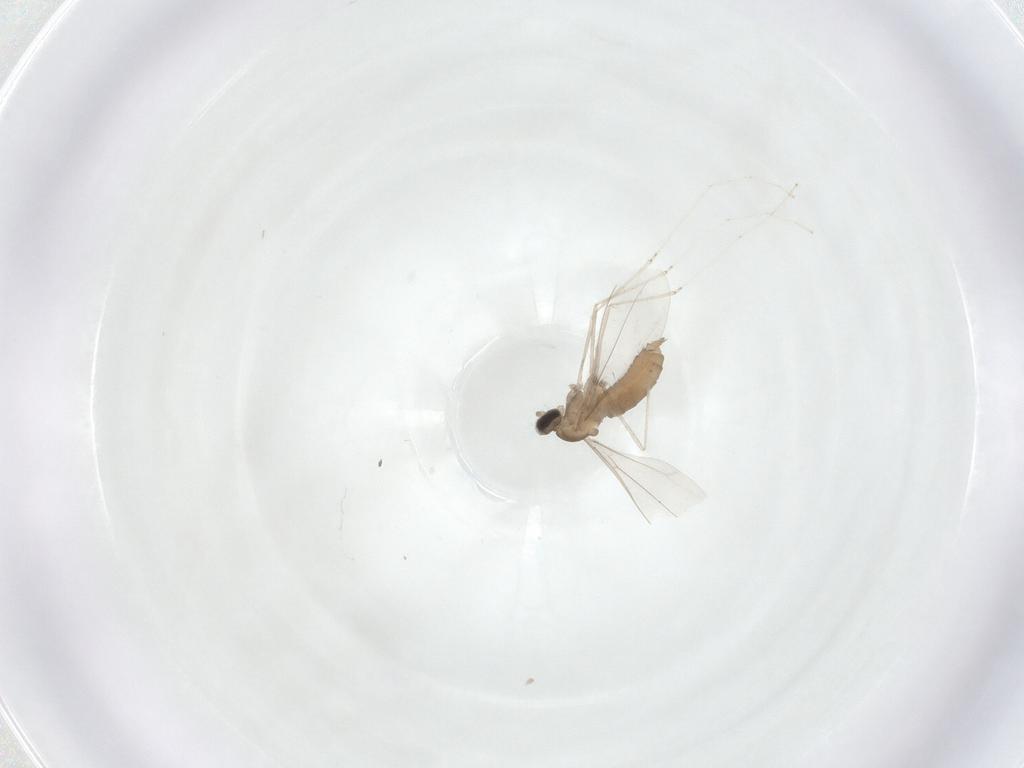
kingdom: Animalia
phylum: Arthropoda
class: Insecta
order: Diptera
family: Cecidomyiidae
